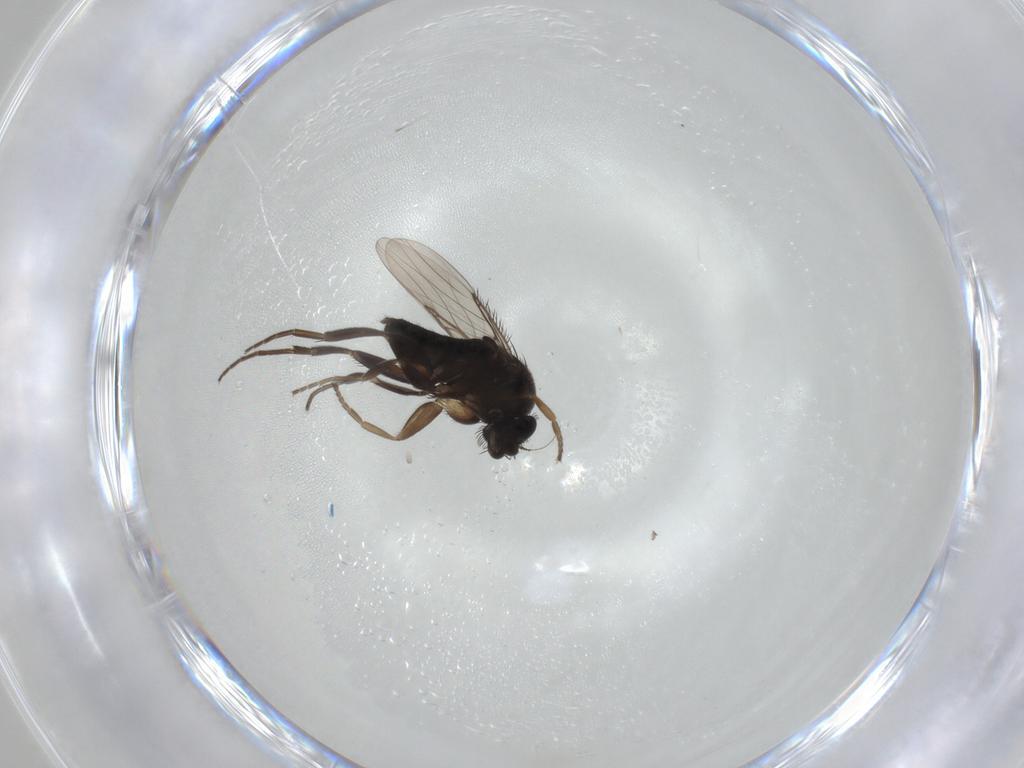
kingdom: Animalia
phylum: Arthropoda
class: Insecta
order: Diptera
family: Phoridae
